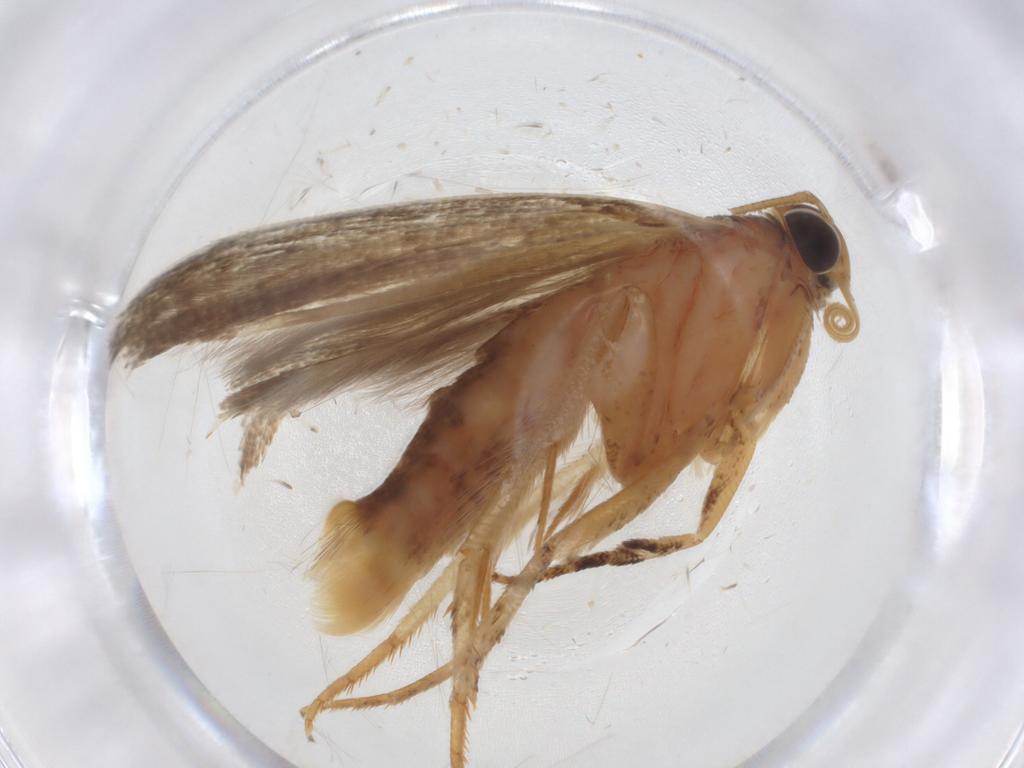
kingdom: Animalia
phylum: Arthropoda
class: Insecta
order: Lepidoptera
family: Gelechiidae
